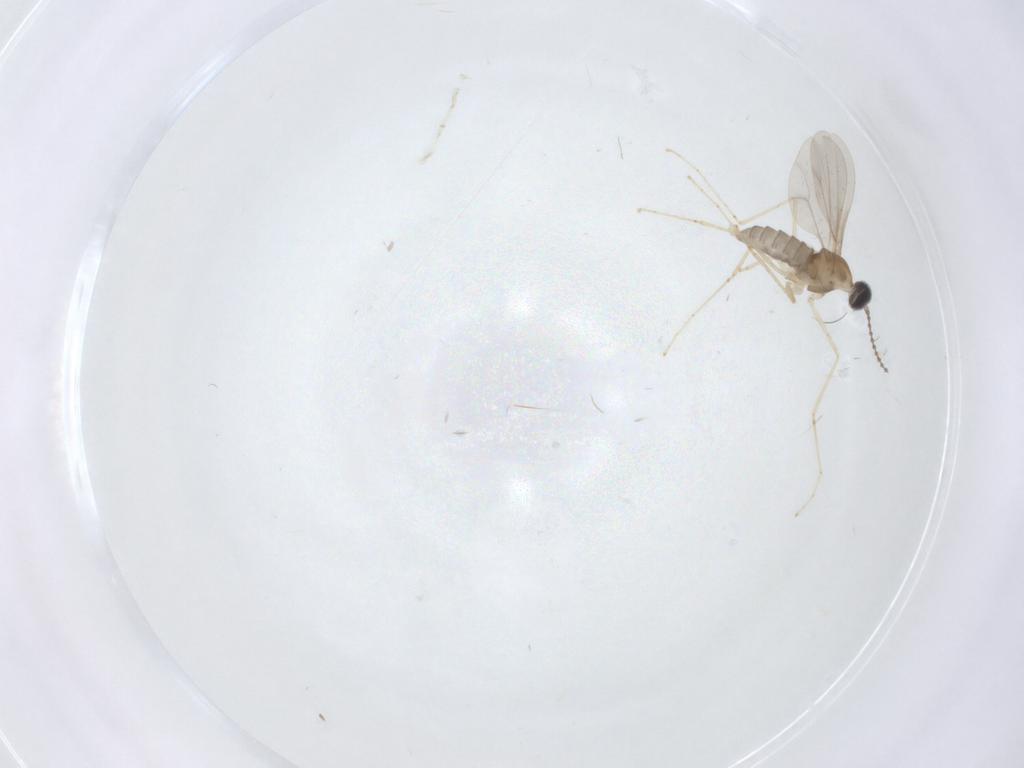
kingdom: Animalia
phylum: Arthropoda
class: Insecta
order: Diptera
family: Cecidomyiidae
